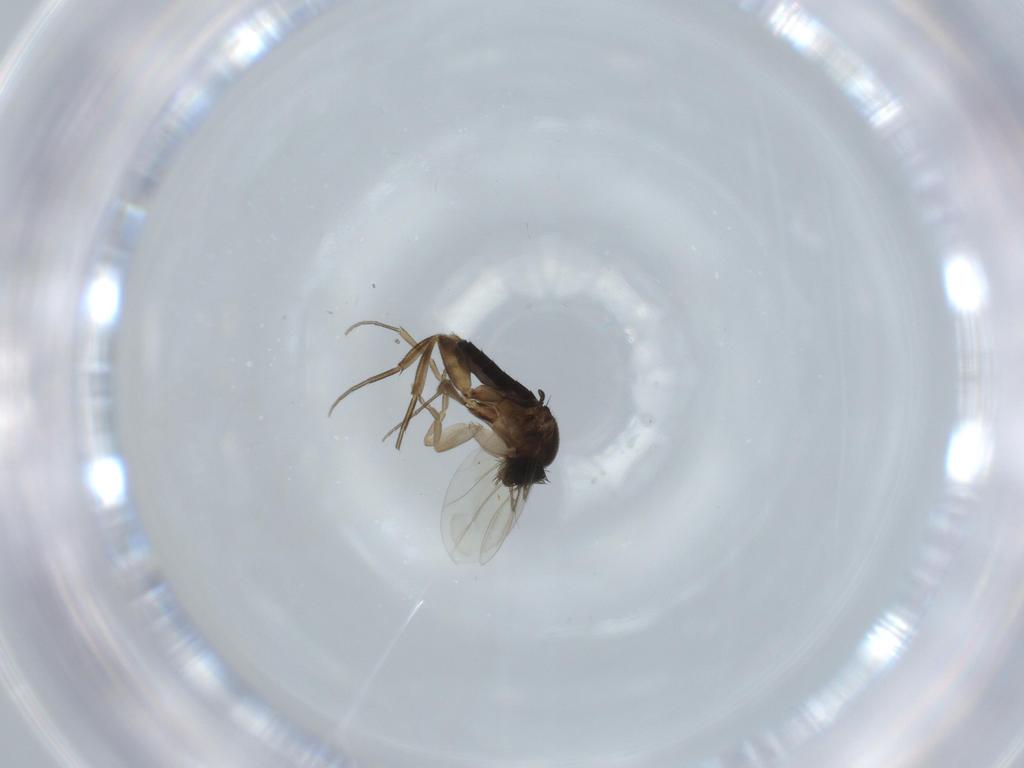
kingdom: Animalia
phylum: Arthropoda
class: Insecta
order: Diptera
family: Phoridae
